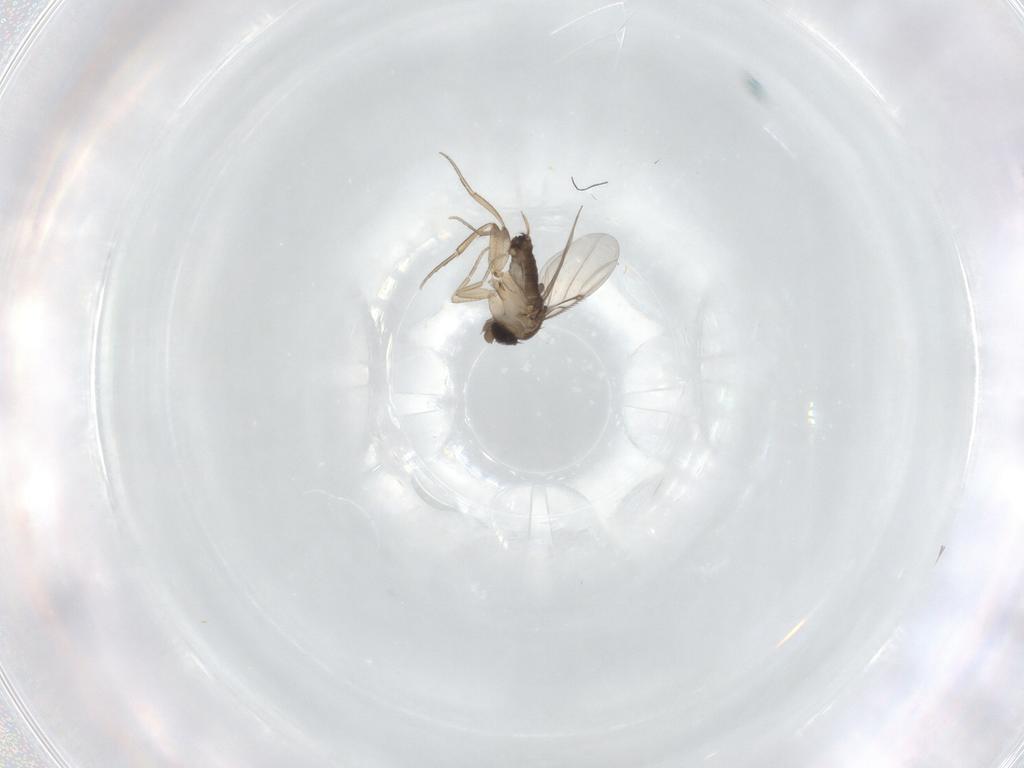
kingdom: Animalia
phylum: Arthropoda
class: Insecta
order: Diptera
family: Phoridae
